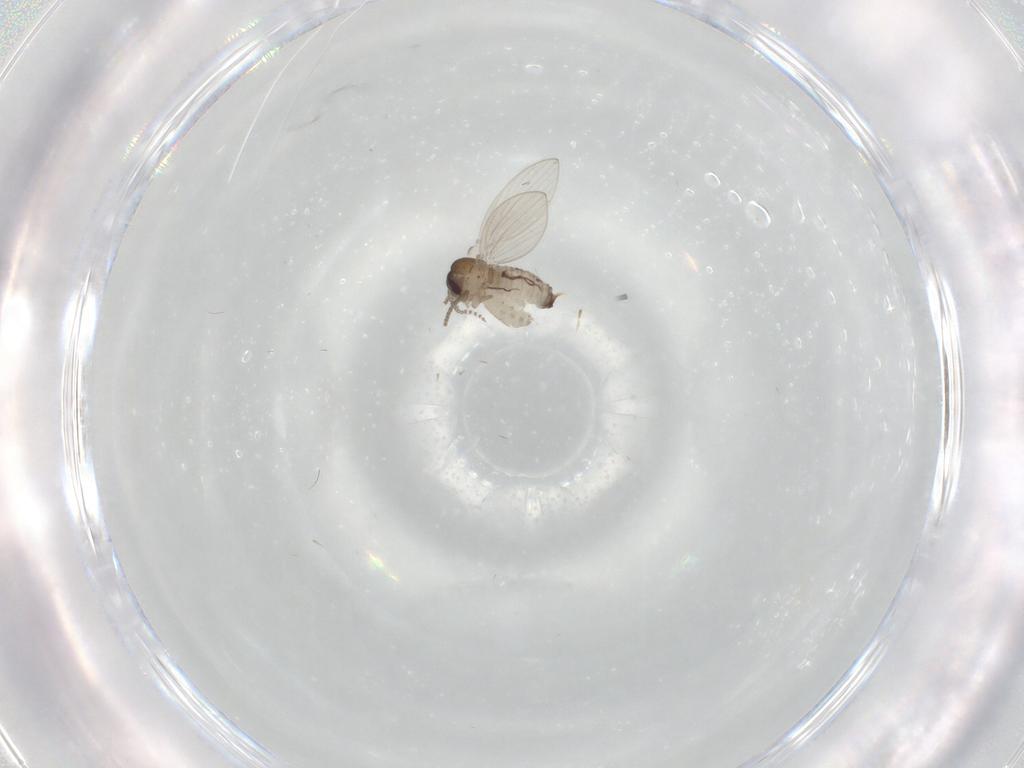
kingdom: Animalia
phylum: Arthropoda
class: Insecta
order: Diptera
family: Psychodidae
